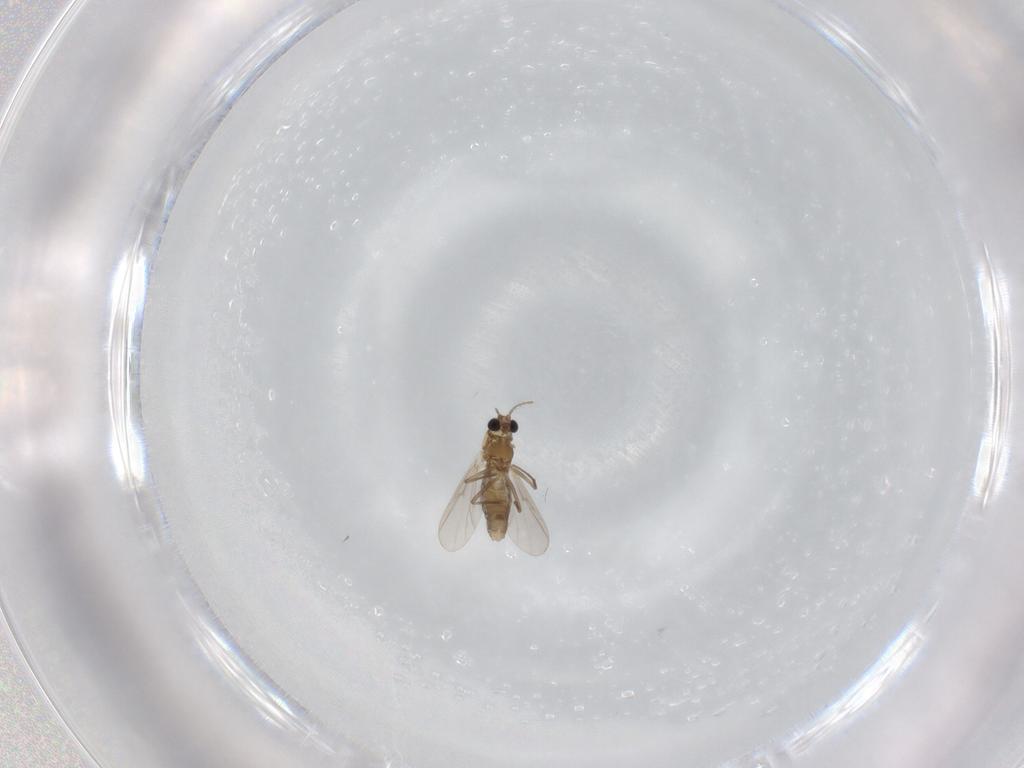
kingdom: Animalia
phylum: Arthropoda
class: Insecta
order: Diptera
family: Chironomidae
